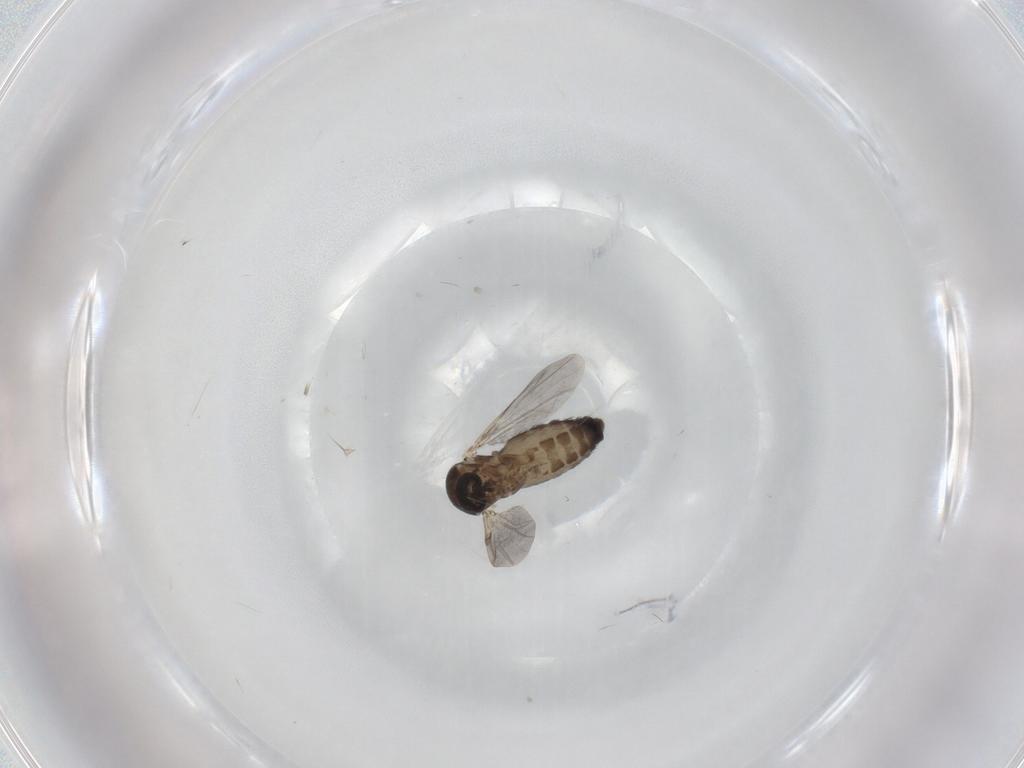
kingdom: Animalia
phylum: Arthropoda
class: Insecta
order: Diptera
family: Ceratopogonidae
